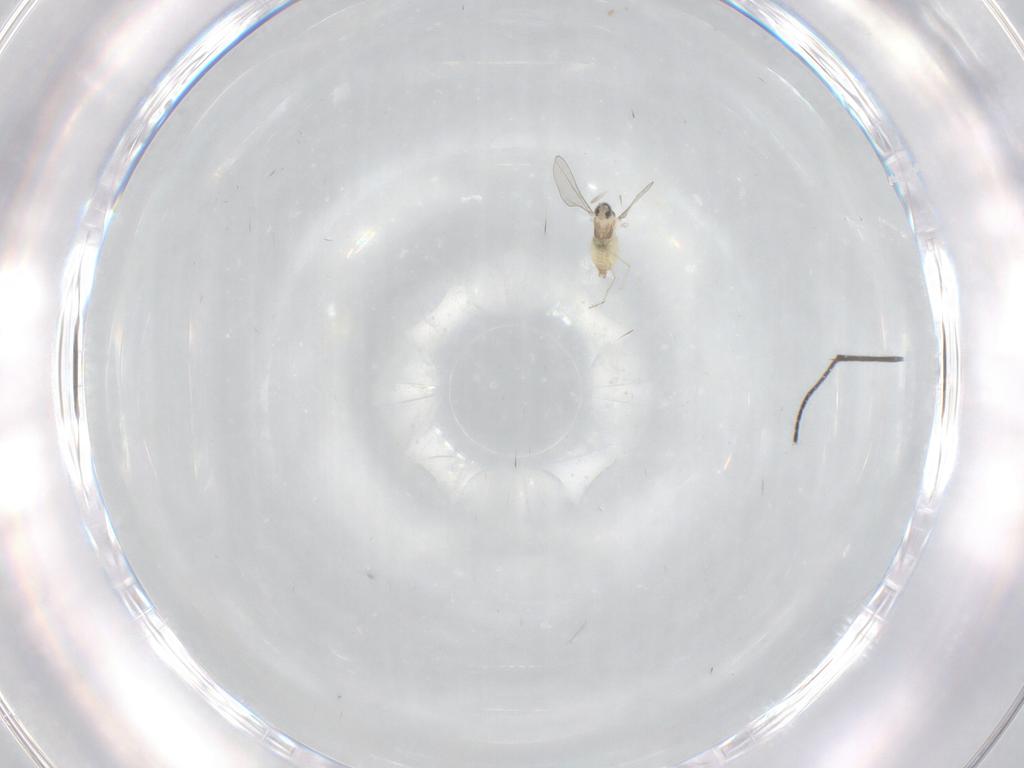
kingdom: Animalia
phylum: Arthropoda
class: Insecta
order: Diptera
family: Cecidomyiidae
